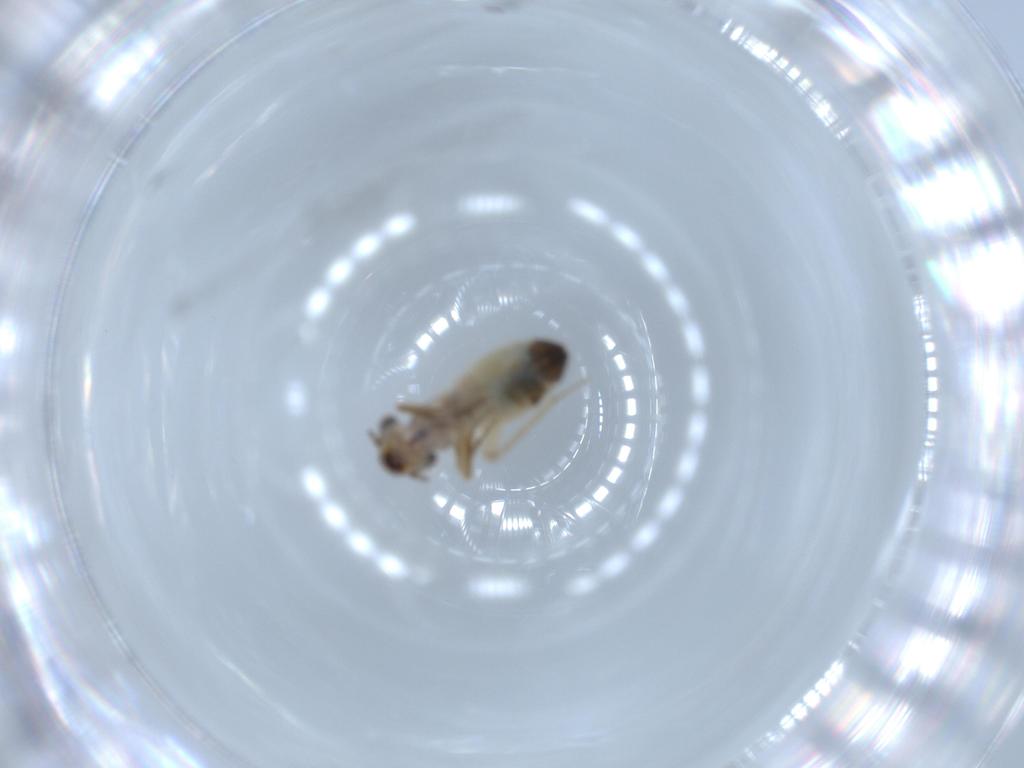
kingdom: Animalia
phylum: Arthropoda
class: Insecta
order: Psocodea
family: Lepidopsocidae
